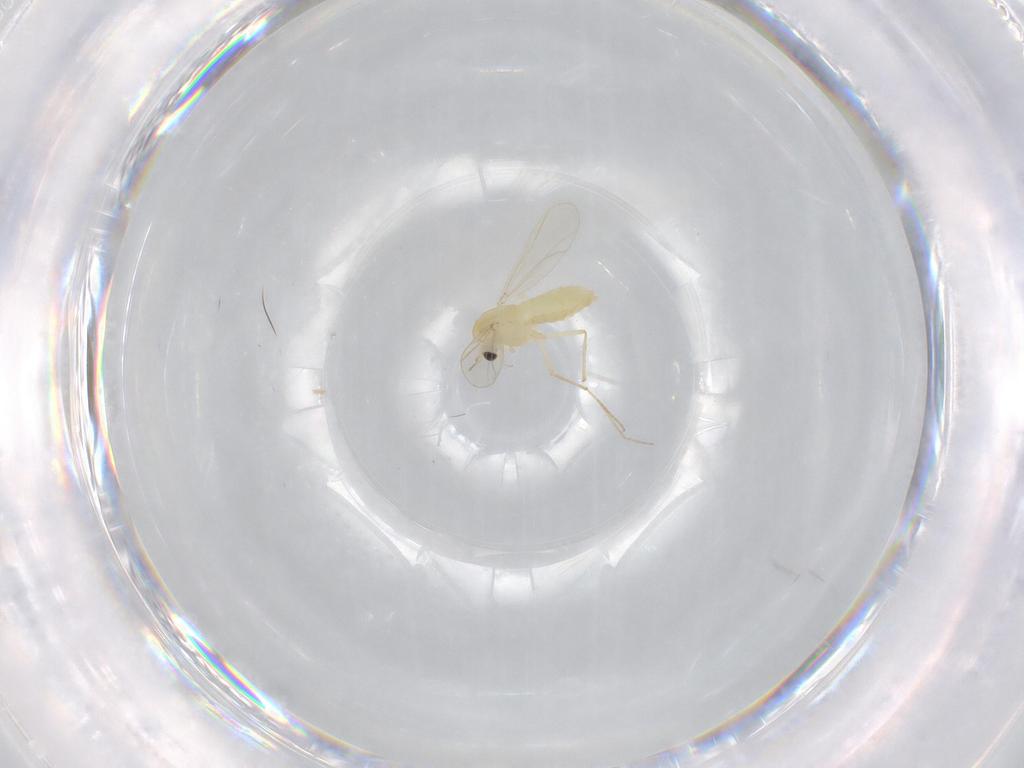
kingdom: Animalia
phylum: Arthropoda
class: Insecta
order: Diptera
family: Chironomidae
